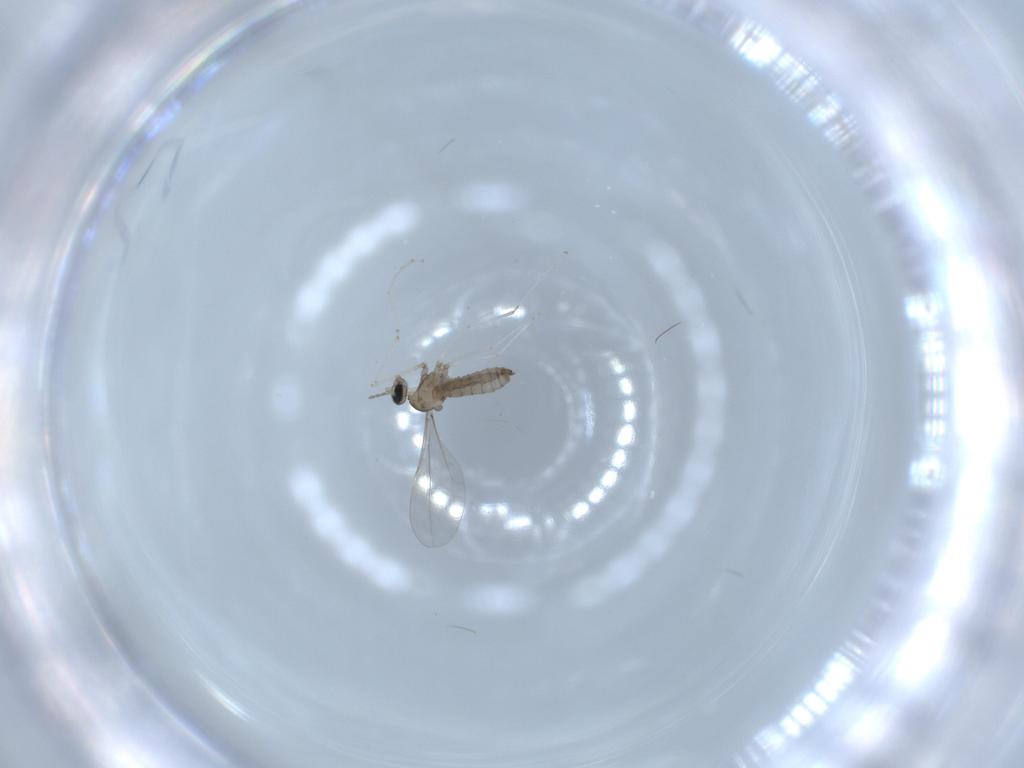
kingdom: Animalia
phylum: Arthropoda
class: Insecta
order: Diptera
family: Cecidomyiidae
